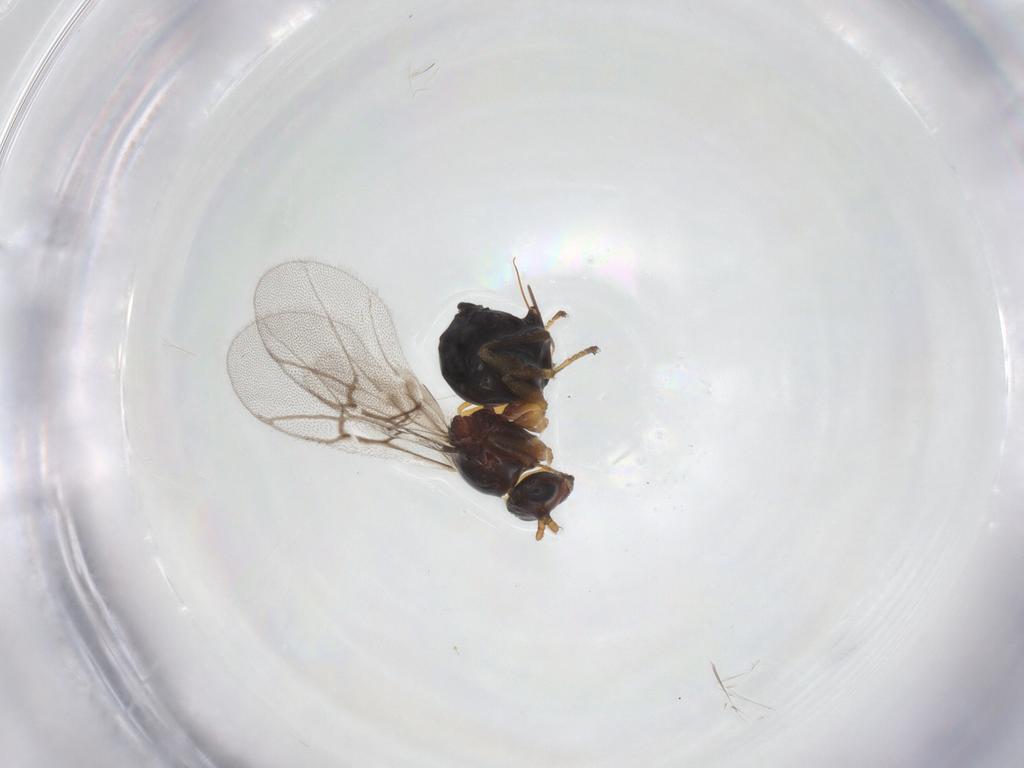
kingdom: Animalia
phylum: Arthropoda
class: Insecta
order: Hymenoptera
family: Cynipidae
